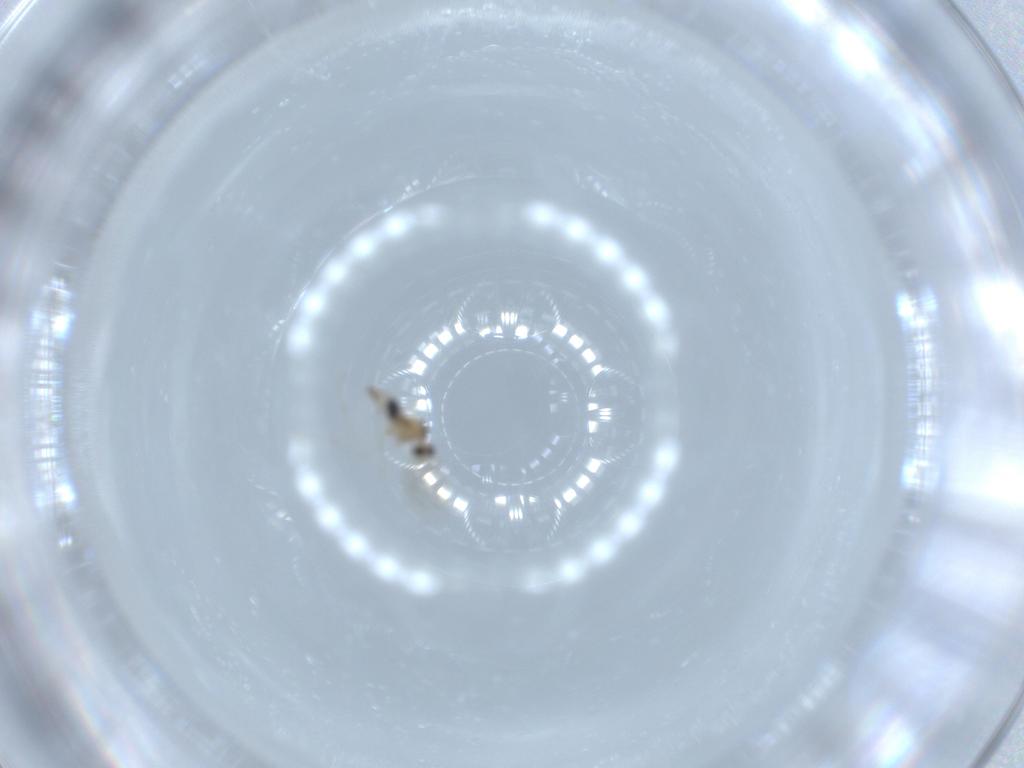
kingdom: Animalia
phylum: Arthropoda
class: Insecta
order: Diptera
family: Cecidomyiidae
